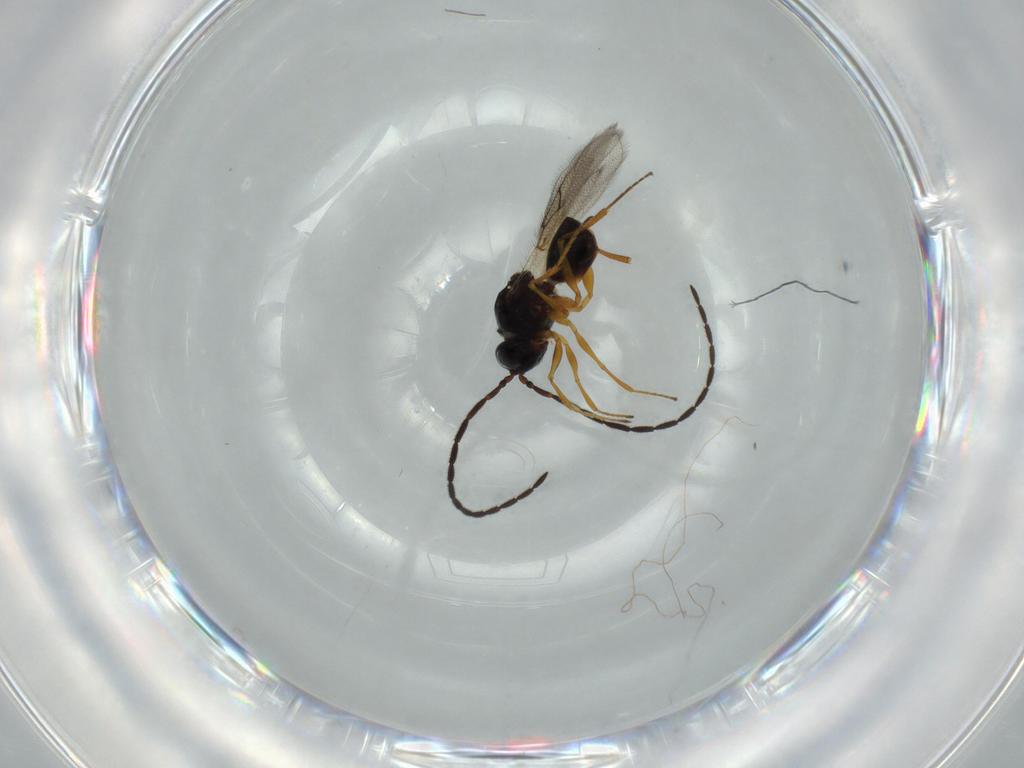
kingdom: Animalia
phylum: Arthropoda
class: Insecta
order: Hymenoptera
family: Figitidae
